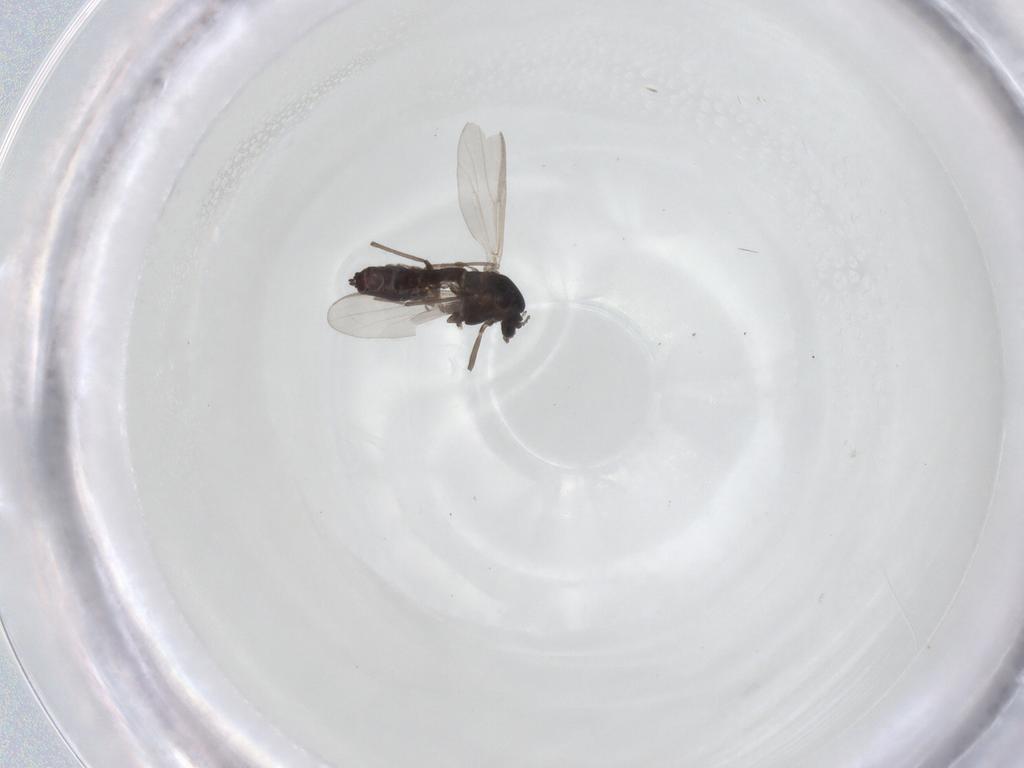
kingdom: Animalia
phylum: Arthropoda
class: Insecta
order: Diptera
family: Chironomidae
